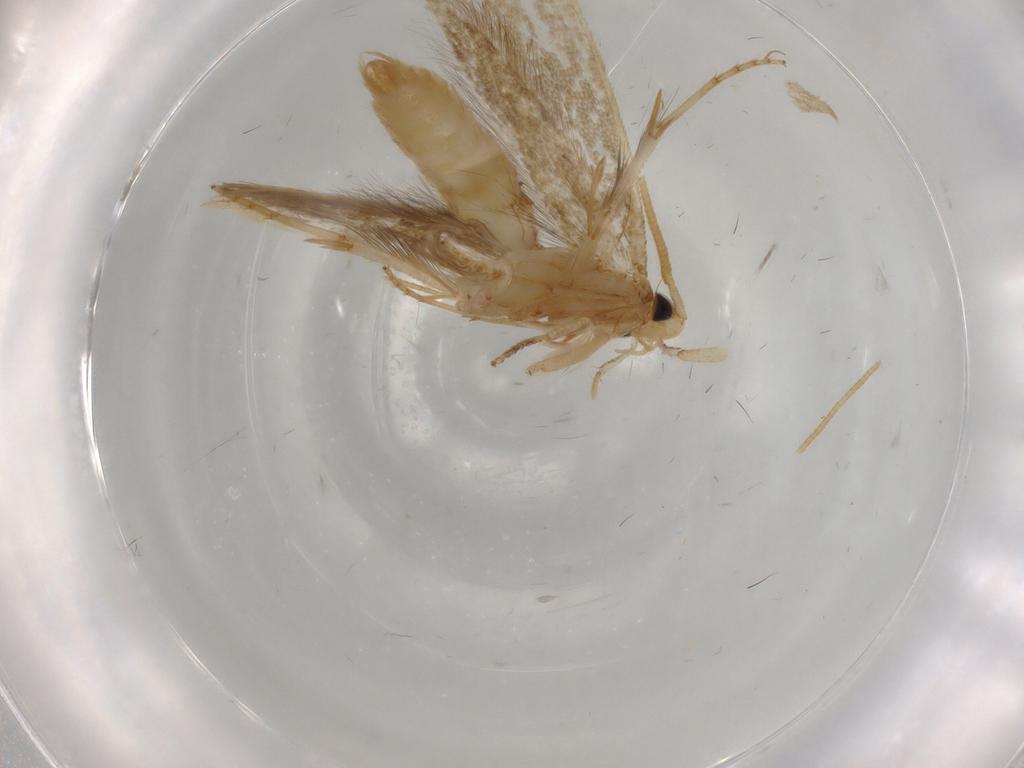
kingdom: Animalia
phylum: Arthropoda
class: Insecta
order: Lepidoptera
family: Tineidae
